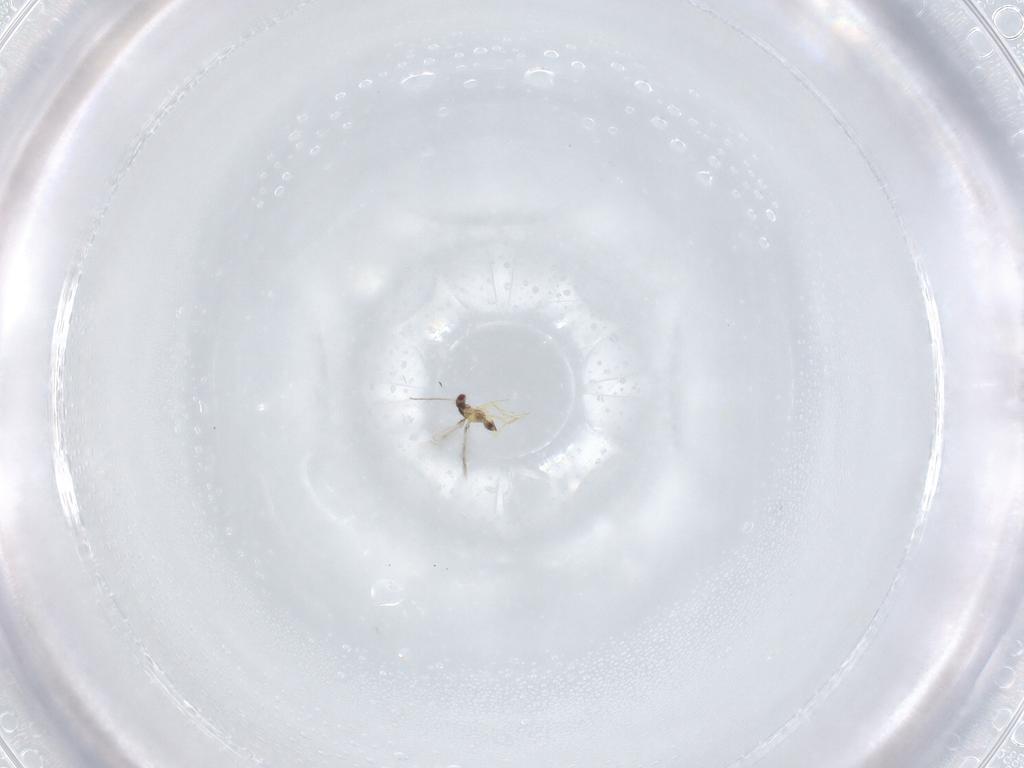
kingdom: Animalia
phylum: Arthropoda
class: Insecta
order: Hymenoptera
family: Mymaridae
